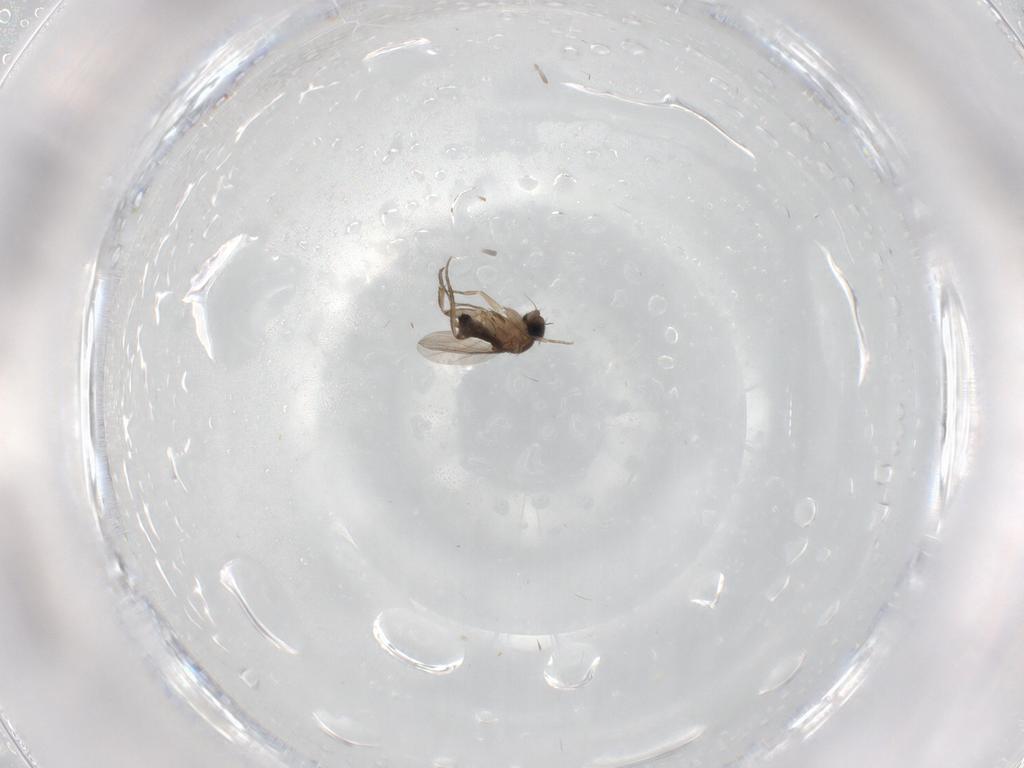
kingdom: Animalia
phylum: Arthropoda
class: Insecta
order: Diptera
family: Phoridae
